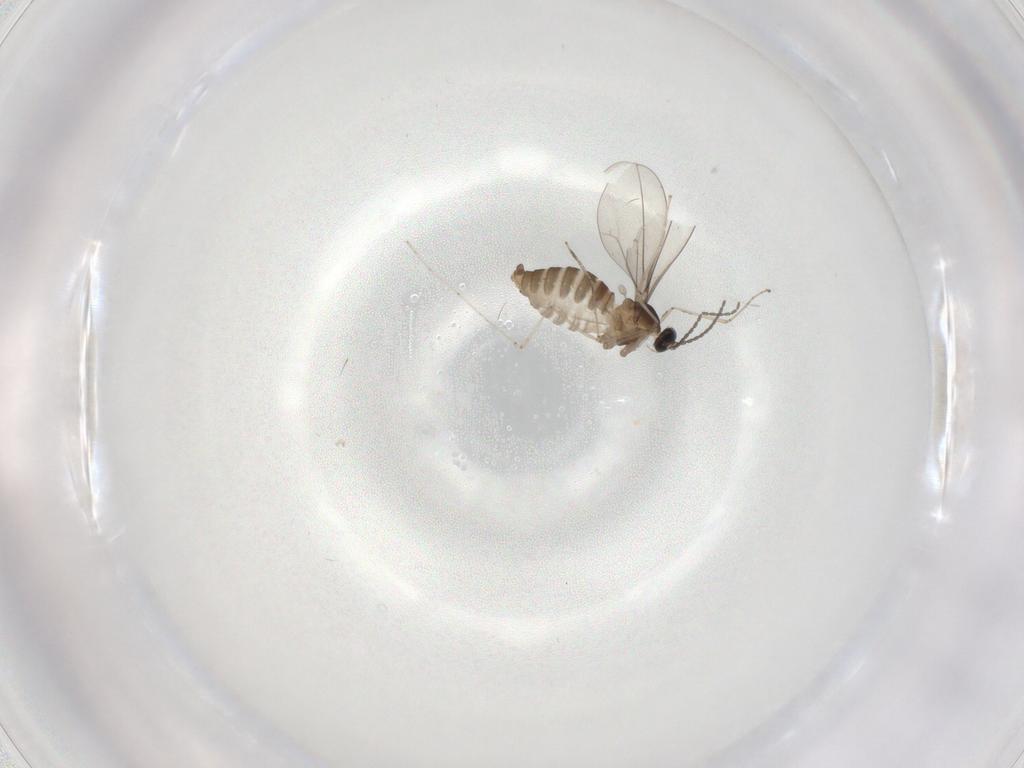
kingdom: Animalia
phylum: Arthropoda
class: Insecta
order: Diptera
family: Cecidomyiidae
